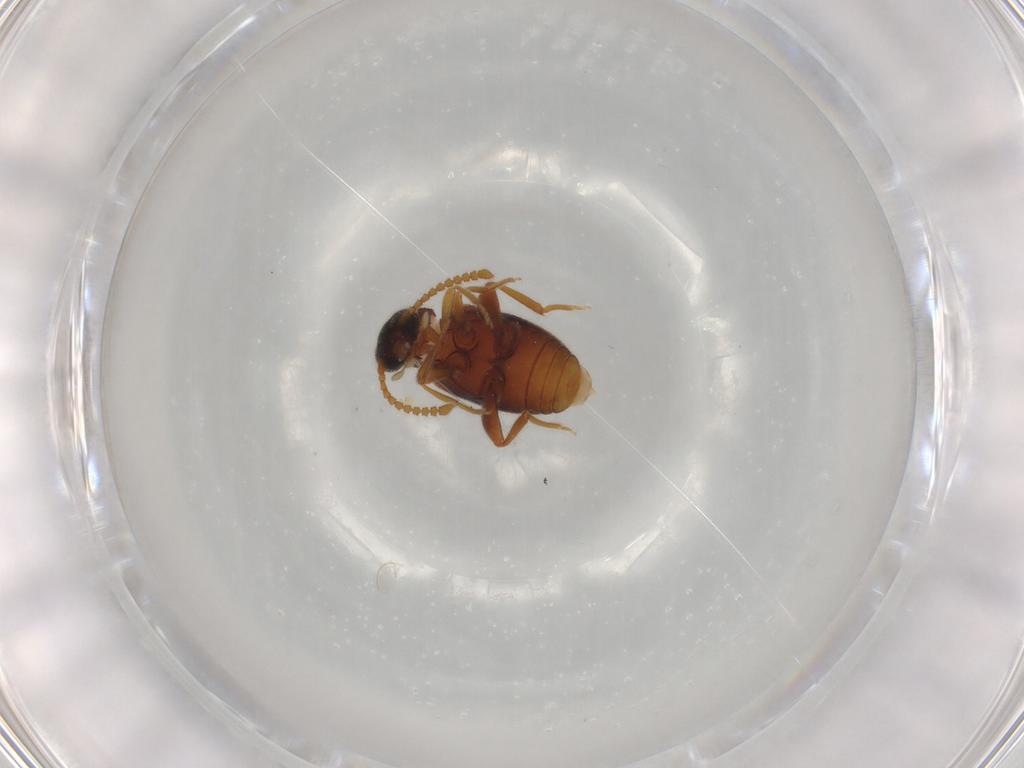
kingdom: Animalia
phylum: Arthropoda
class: Insecta
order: Coleoptera
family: Aderidae
